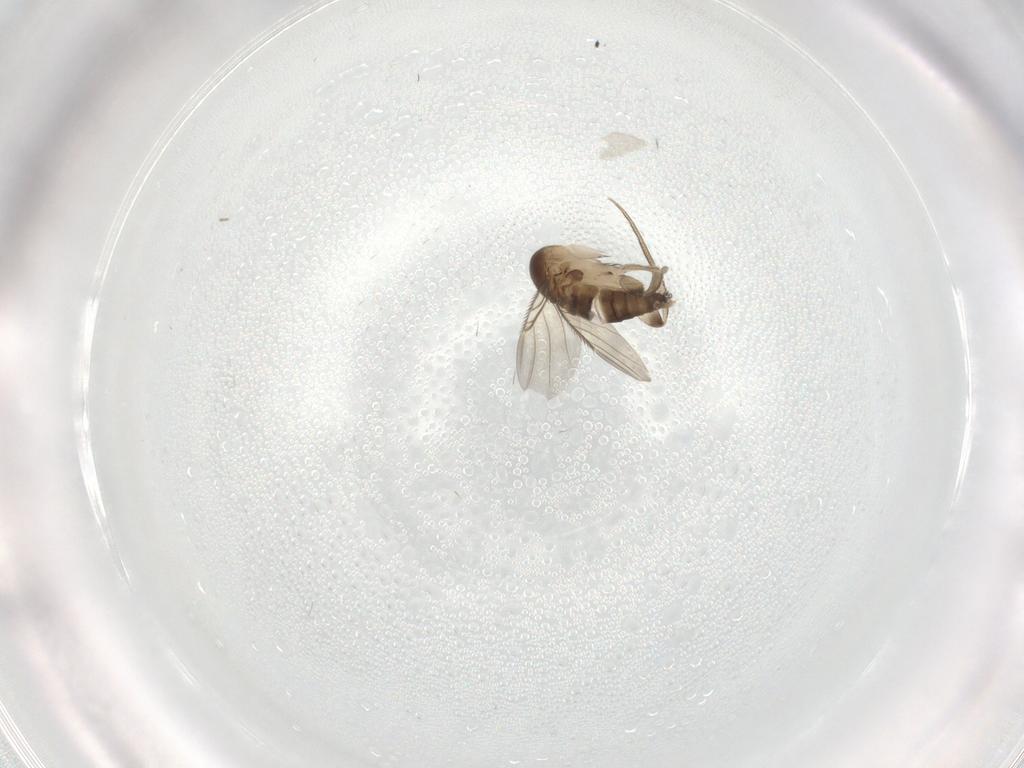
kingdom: Animalia
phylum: Arthropoda
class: Insecta
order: Diptera
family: Phoridae
